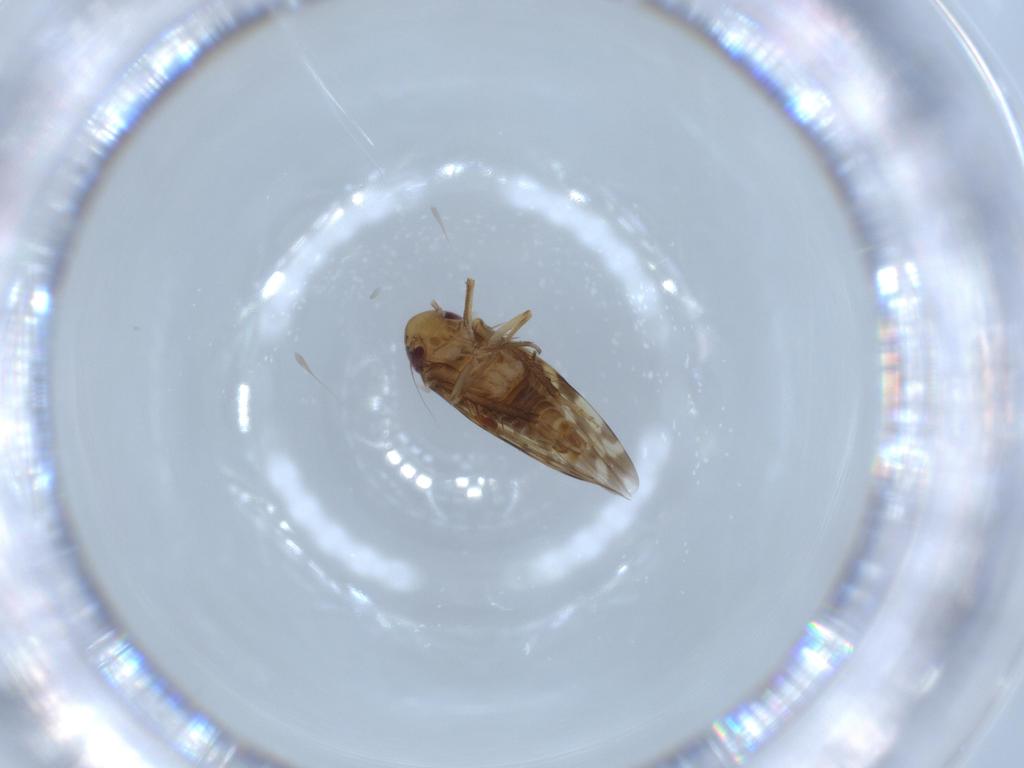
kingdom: Animalia
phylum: Arthropoda
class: Insecta
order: Hemiptera
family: Cicadellidae
